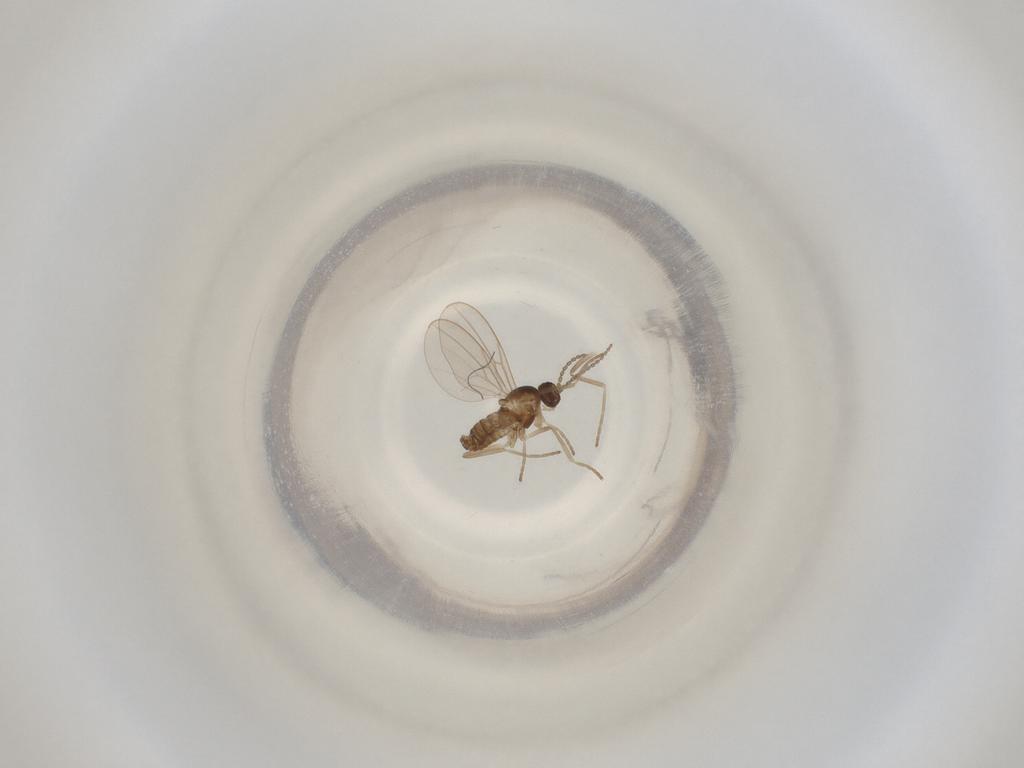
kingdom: Animalia
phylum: Arthropoda
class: Insecta
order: Diptera
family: Cecidomyiidae
